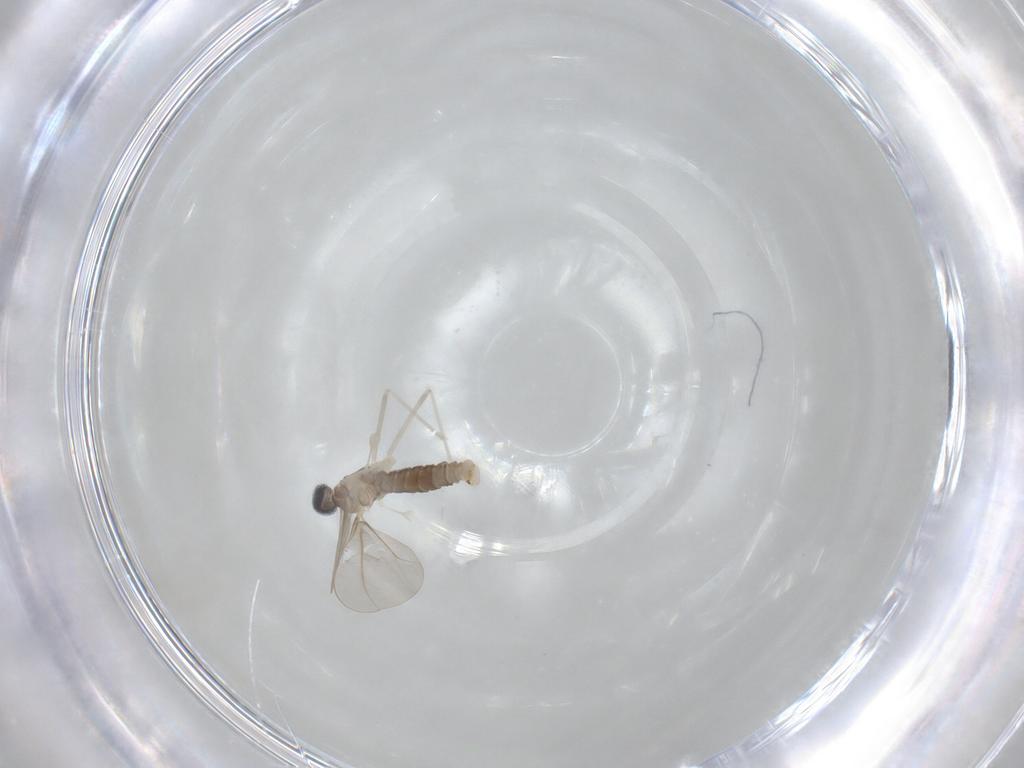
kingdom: Animalia
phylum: Arthropoda
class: Insecta
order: Diptera
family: Cecidomyiidae
